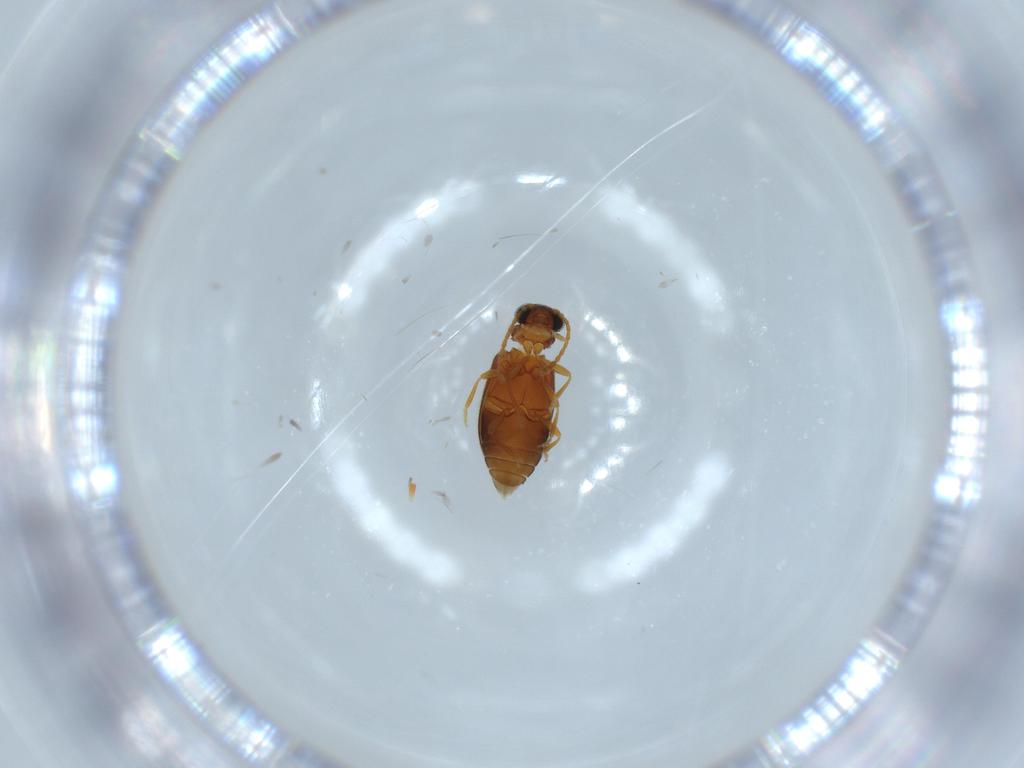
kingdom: Animalia
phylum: Arthropoda
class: Insecta
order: Coleoptera
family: Aderidae
